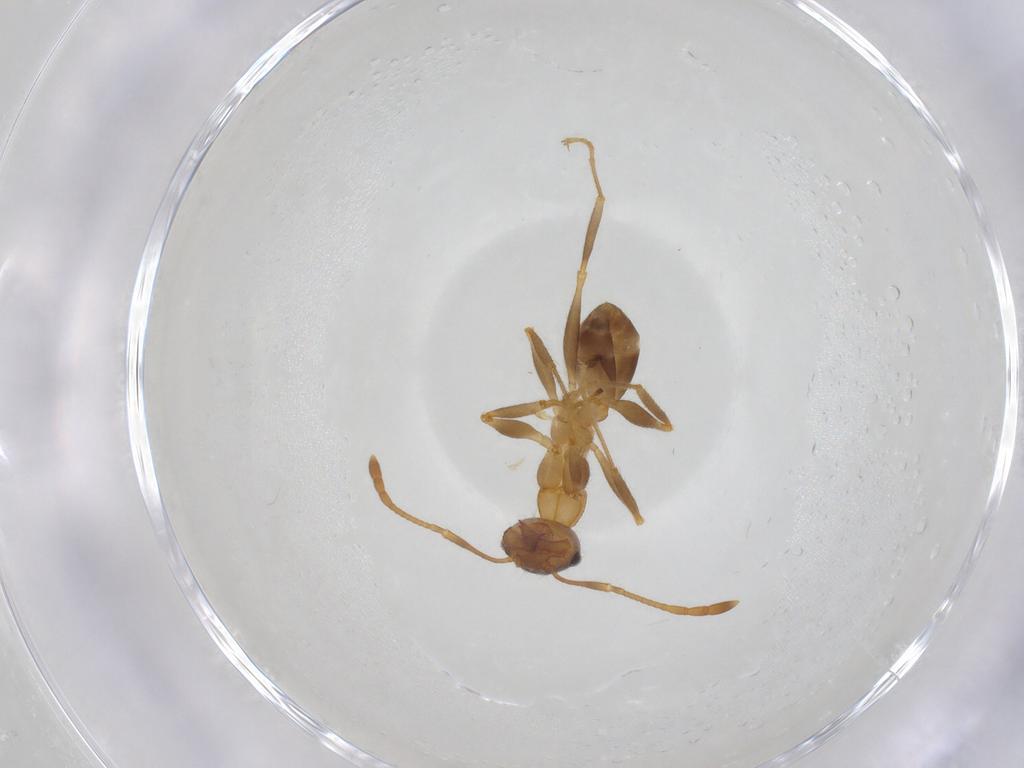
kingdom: Animalia
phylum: Arthropoda
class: Insecta
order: Hymenoptera
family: Formicidae
